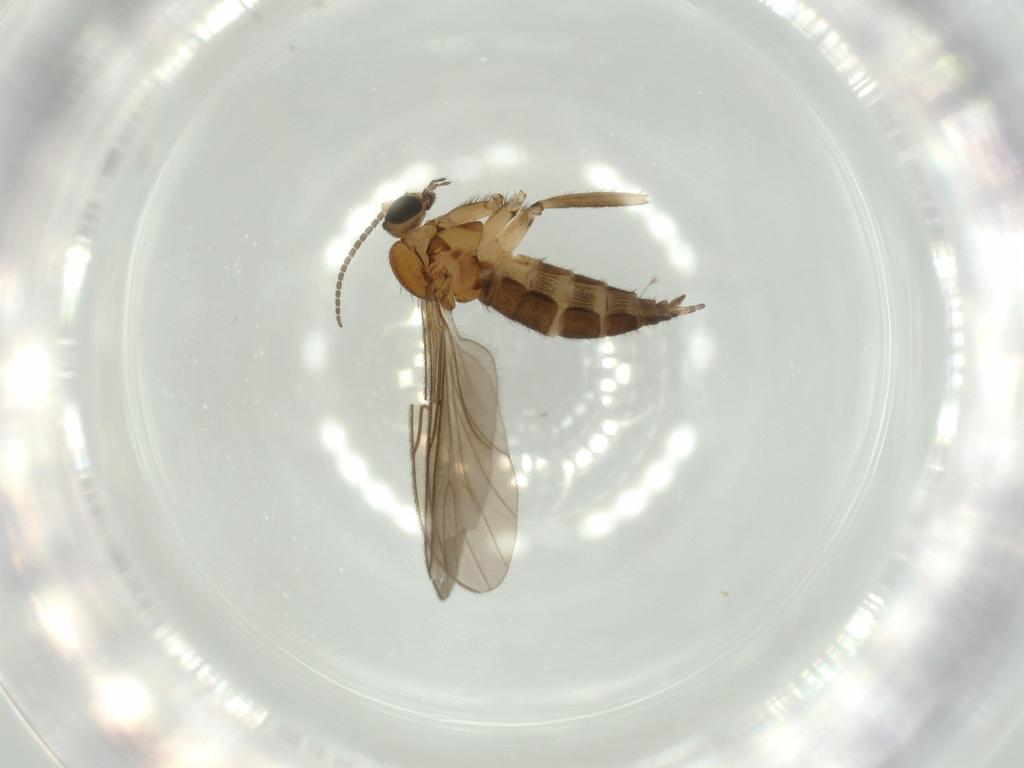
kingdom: Animalia
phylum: Arthropoda
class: Insecta
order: Diptera
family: Sciaridae
